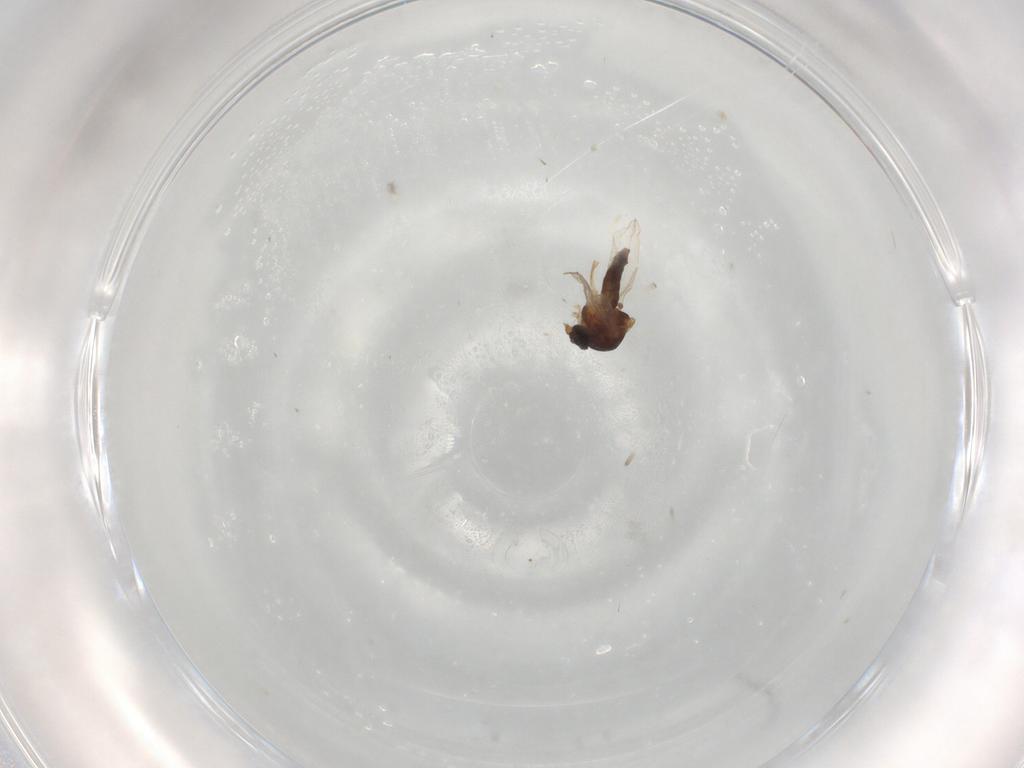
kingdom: Animalia
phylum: Arthropoda
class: Insecta
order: Diptera
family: Ceratopogonidae
